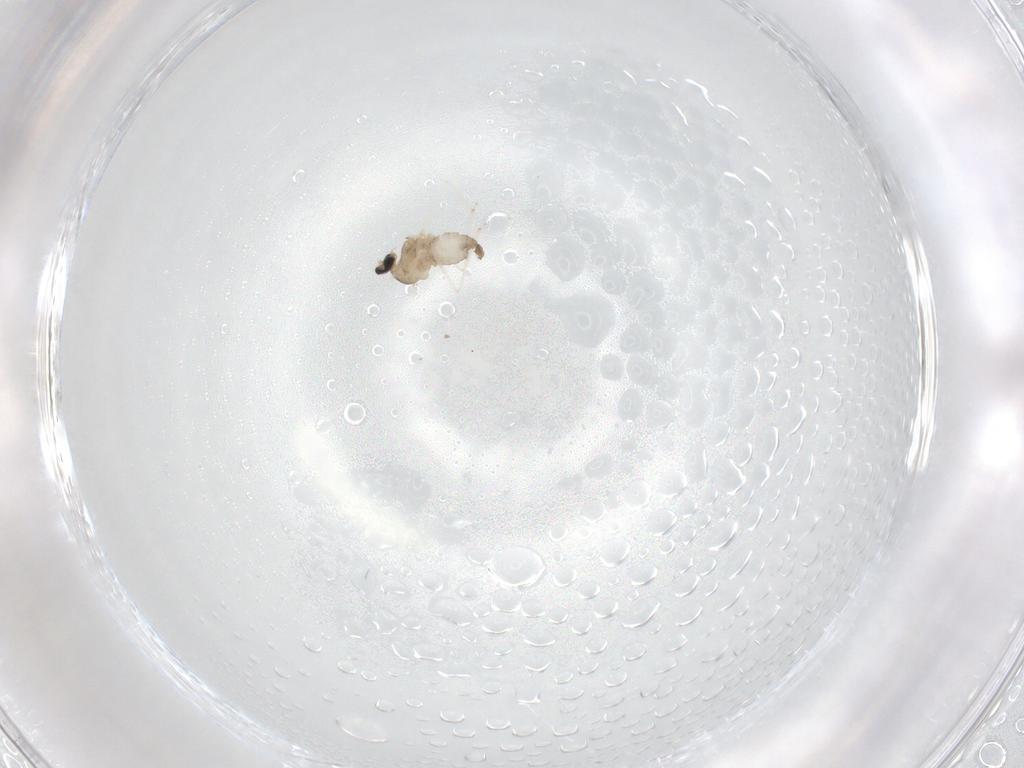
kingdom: Animalia
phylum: Arthropoda
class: Insecta
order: Diptera
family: Cecidomyiidae
